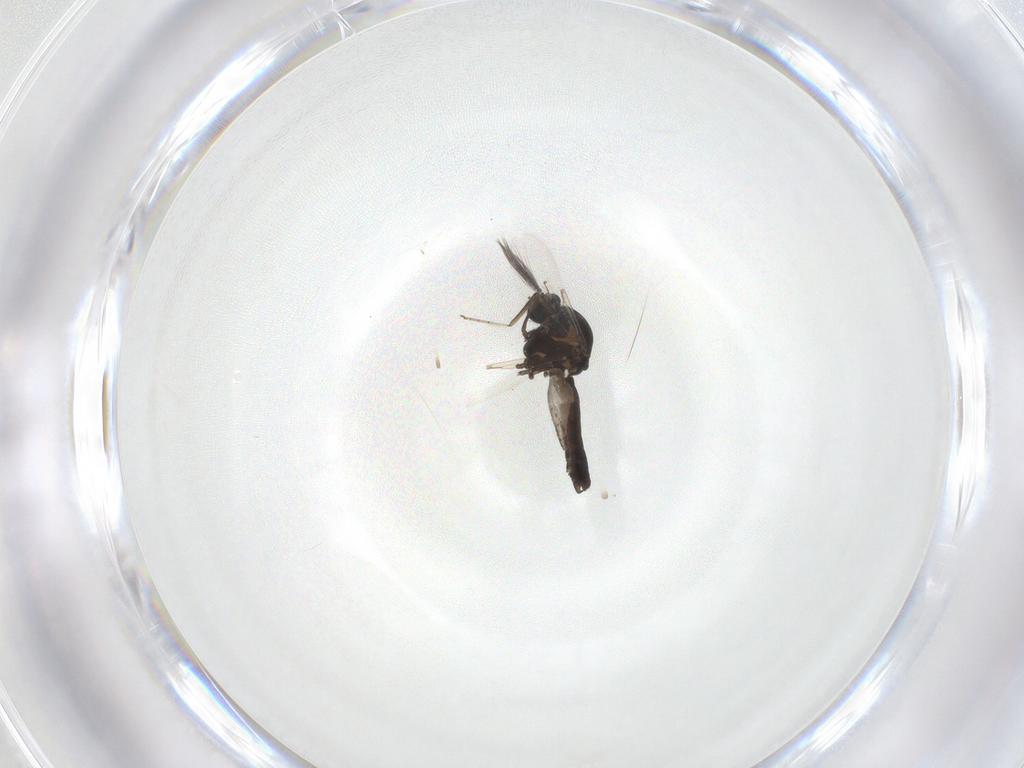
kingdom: Animalia
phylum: Arthropoda
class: Insecta
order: Diptera
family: Ceratopogonidae
